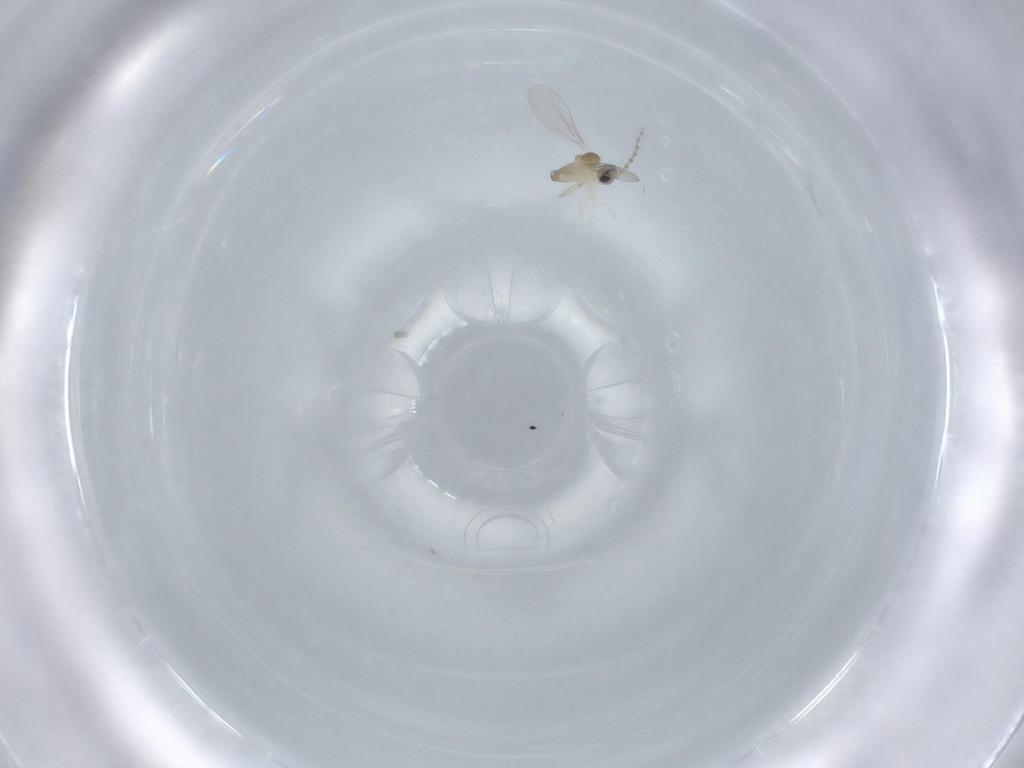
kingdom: Animalia
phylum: Arthropoda
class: Insecta
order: Diptera
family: Cecidomyiidae
